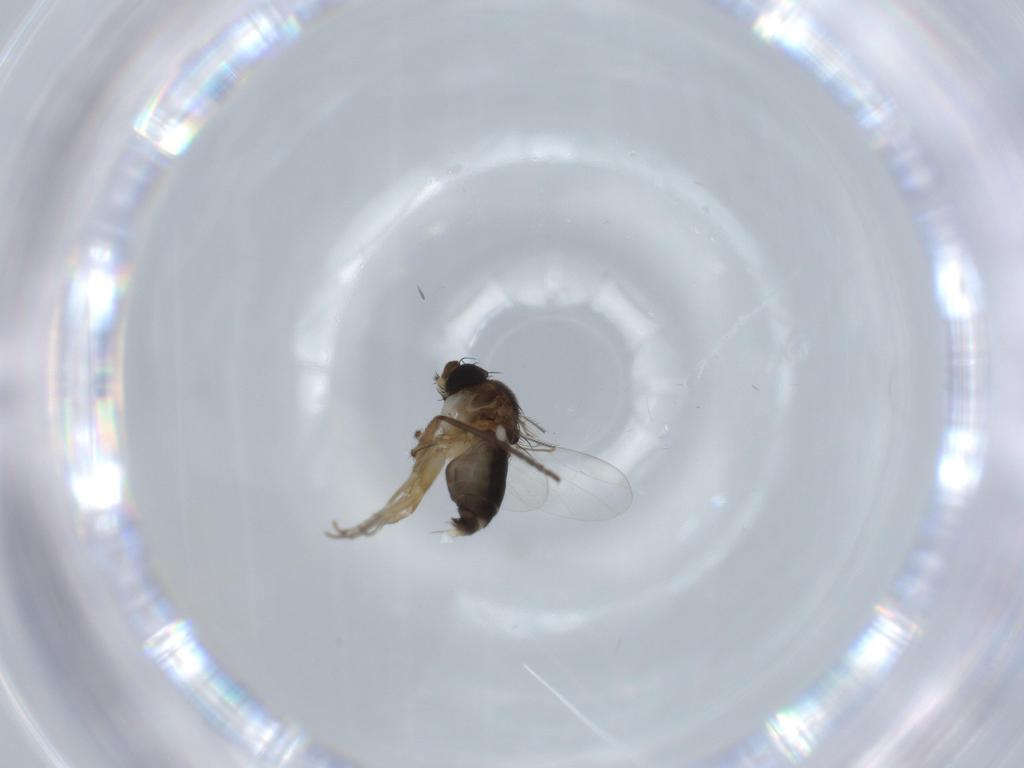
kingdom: Animalia
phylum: Arthropoda
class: Insecta
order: Diptera
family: Phoridae
